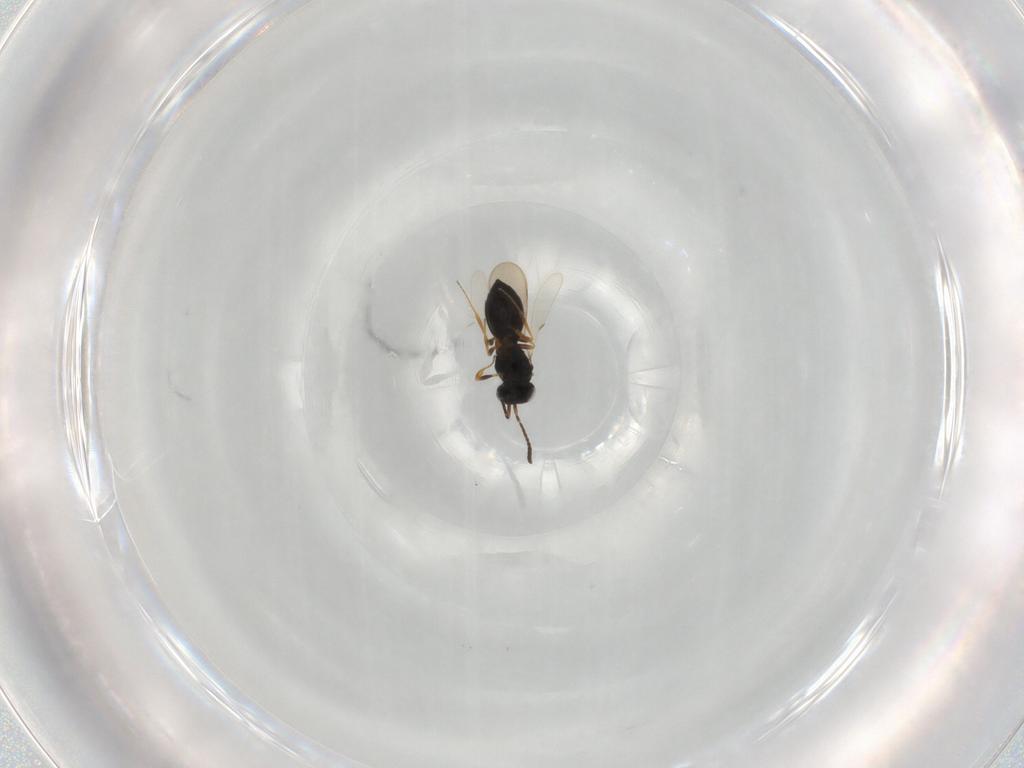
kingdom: Animalia
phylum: Arthropoda
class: Insecta
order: Hymenoptera
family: Scelionidae
